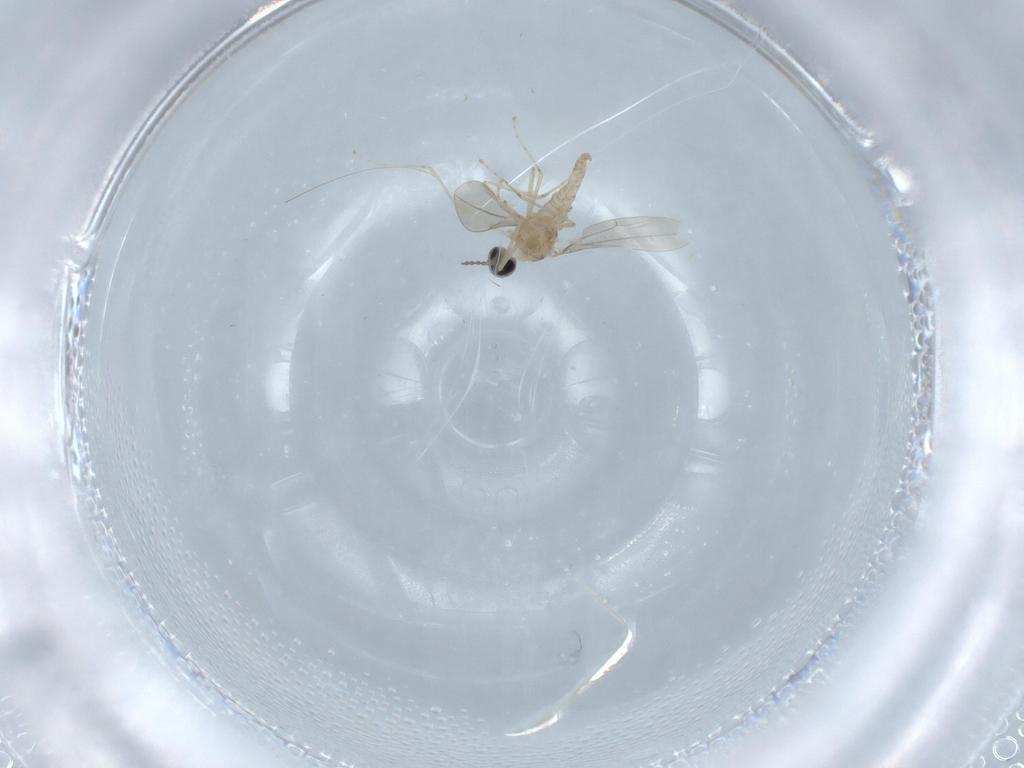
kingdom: Animalia
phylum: Arthropoda
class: Insecta
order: Diptera
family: Cecidomyiidae
